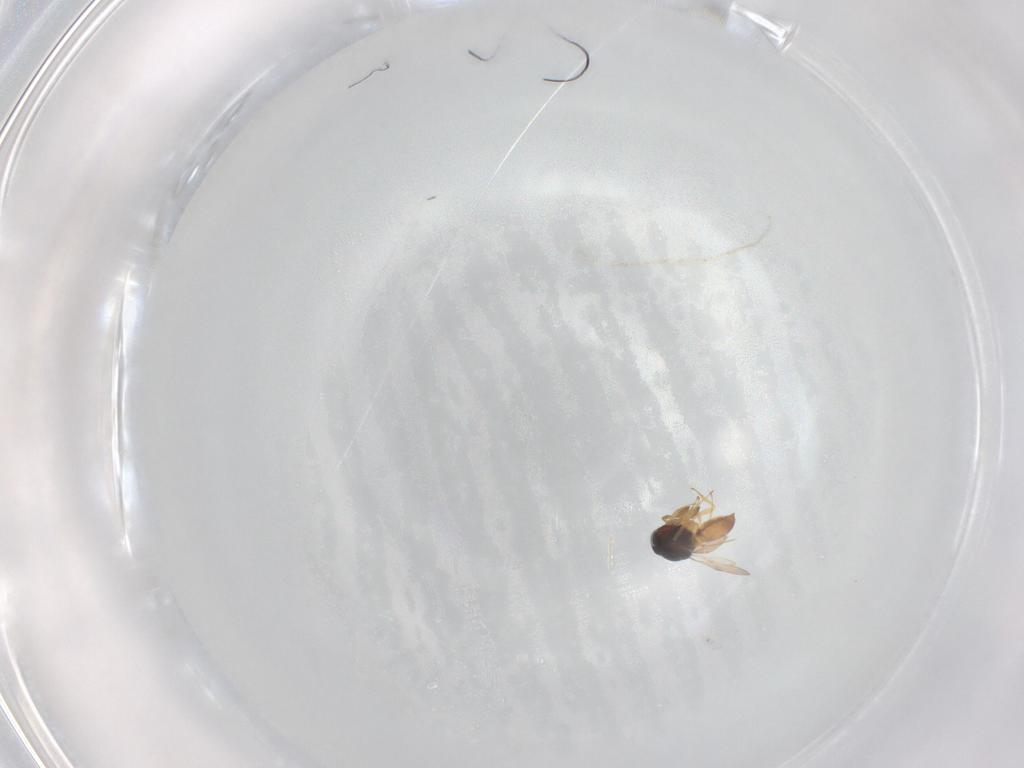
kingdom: Animalia
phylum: Arthropoda
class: Insecta
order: Hymenoptera
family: Scelionidae
